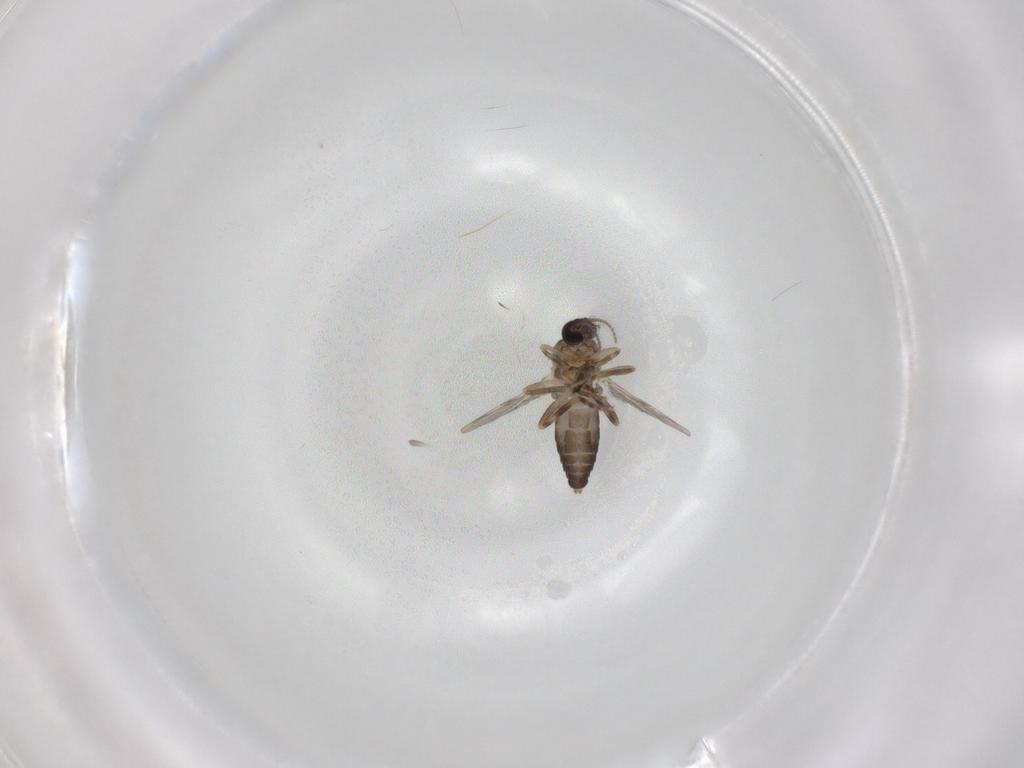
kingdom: Animalia
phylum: Arthropoda
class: Insecta
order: Diptera
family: Ceratopogonidae
